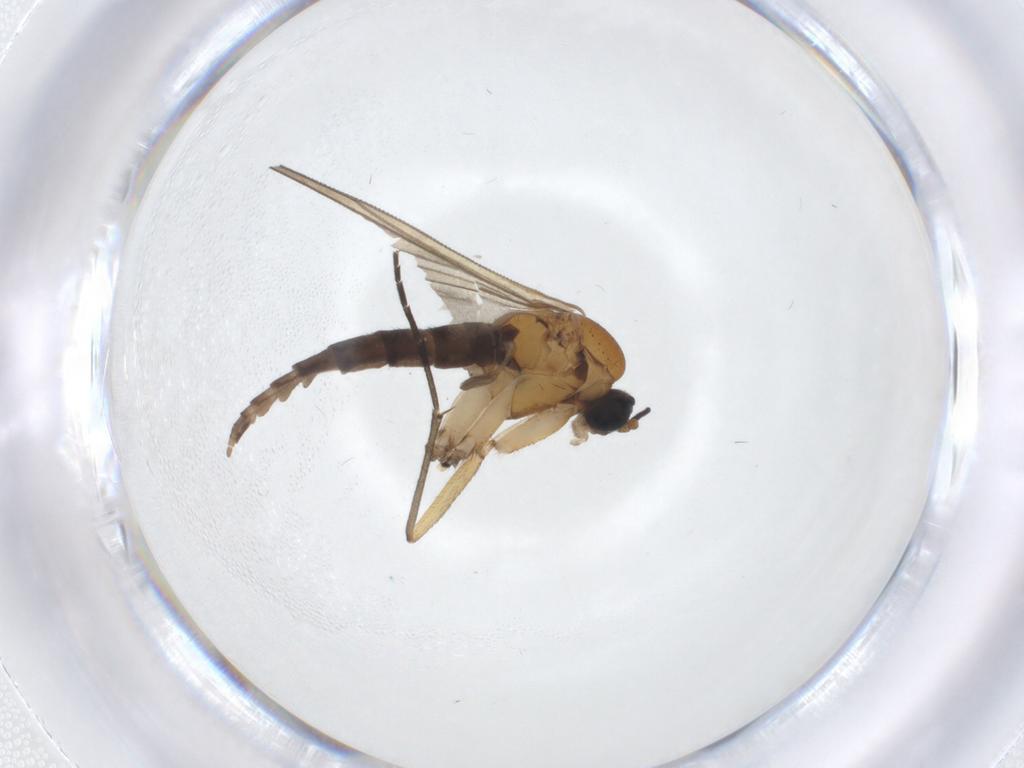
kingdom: Animalia
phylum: Arthropoda
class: Insecta
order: Diptera
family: Sciaridae
